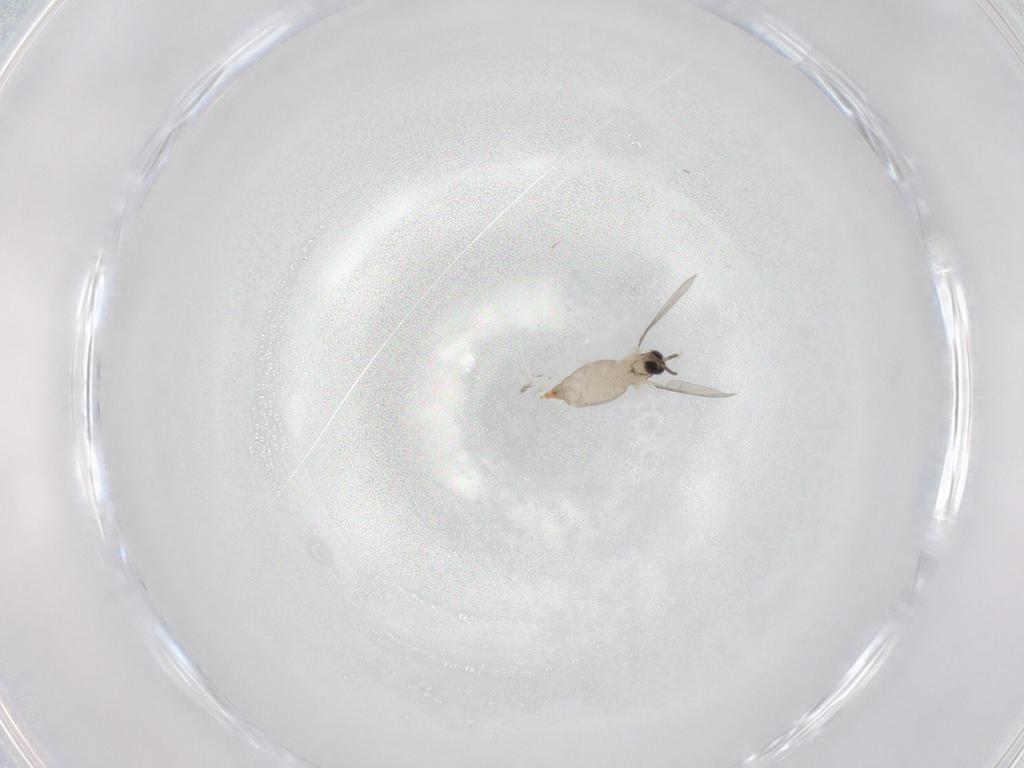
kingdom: Animalia
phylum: Arthropoda
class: Insecta
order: Diptera
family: Cecidomyiidae
